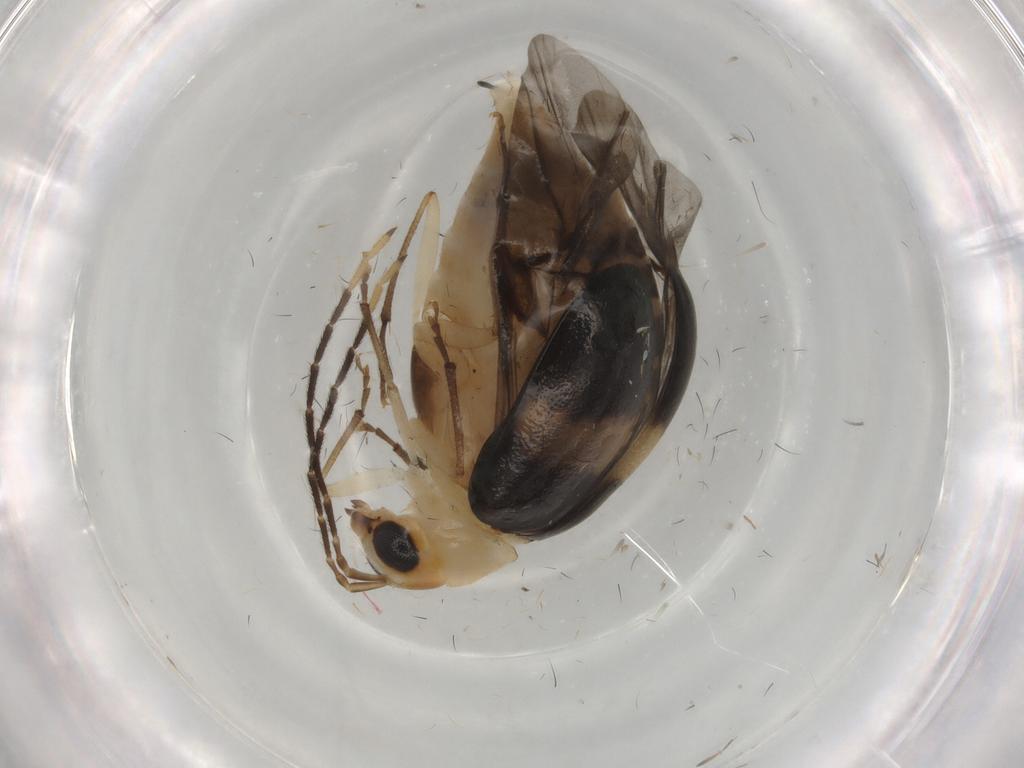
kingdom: Animalia
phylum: Arthropoda
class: Insecta
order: Coleoptera
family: Chrysomelidae
